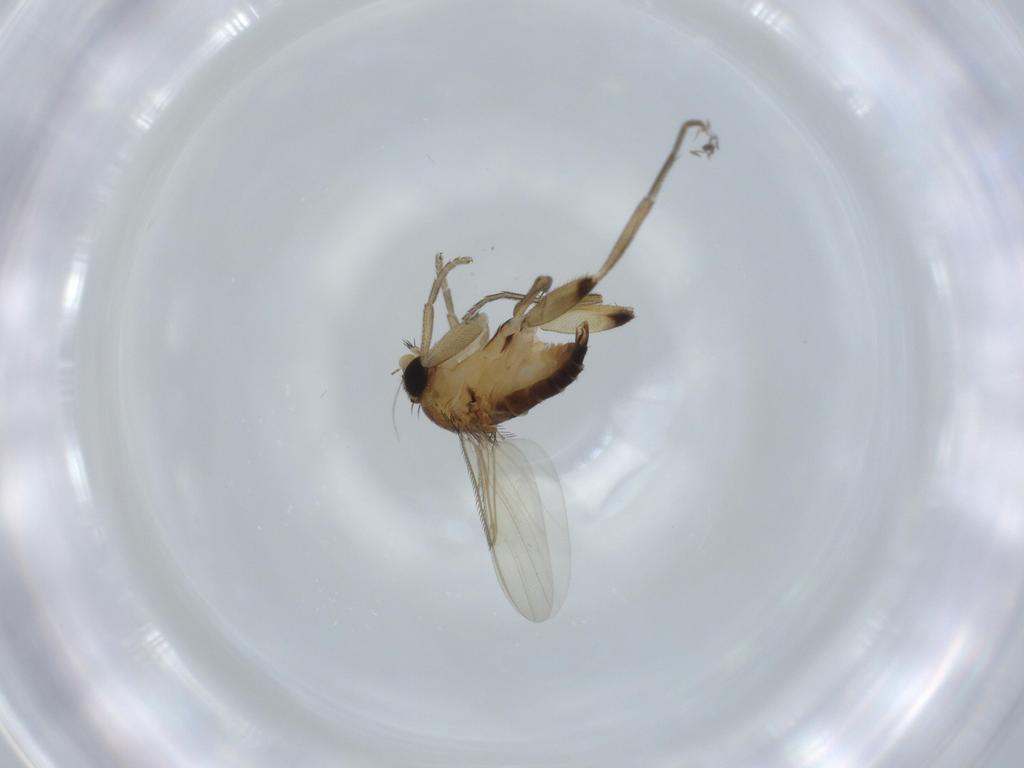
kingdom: Animalia
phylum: Arthropoda
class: Insecta
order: Diptera
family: Phoridae
